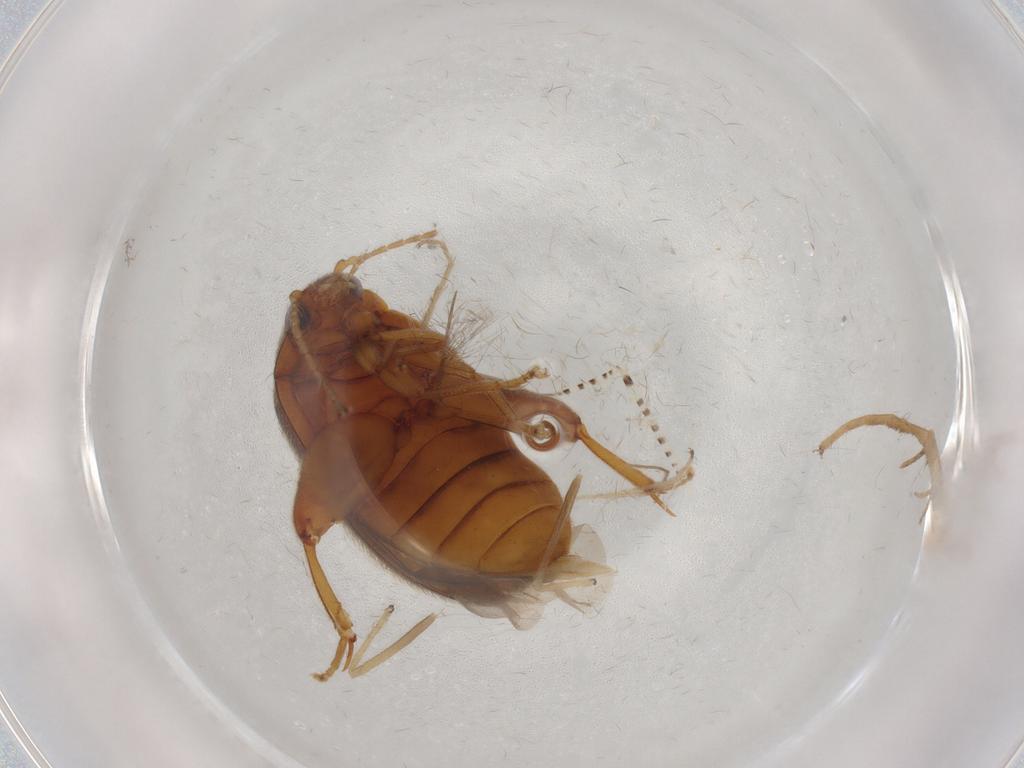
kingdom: Animalia
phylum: Arthropoda
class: Insecta
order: Coleoptera
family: Scirtidae
